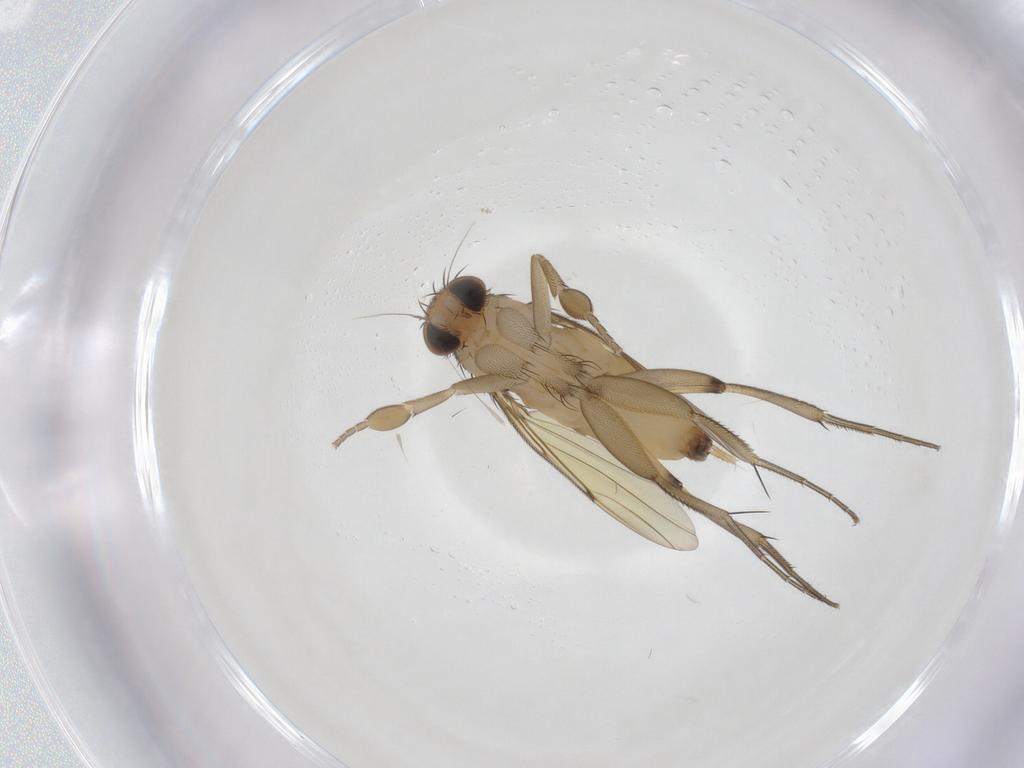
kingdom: Animalia
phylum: Arthropoda
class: Insecta
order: Diptera
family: Phoridae
